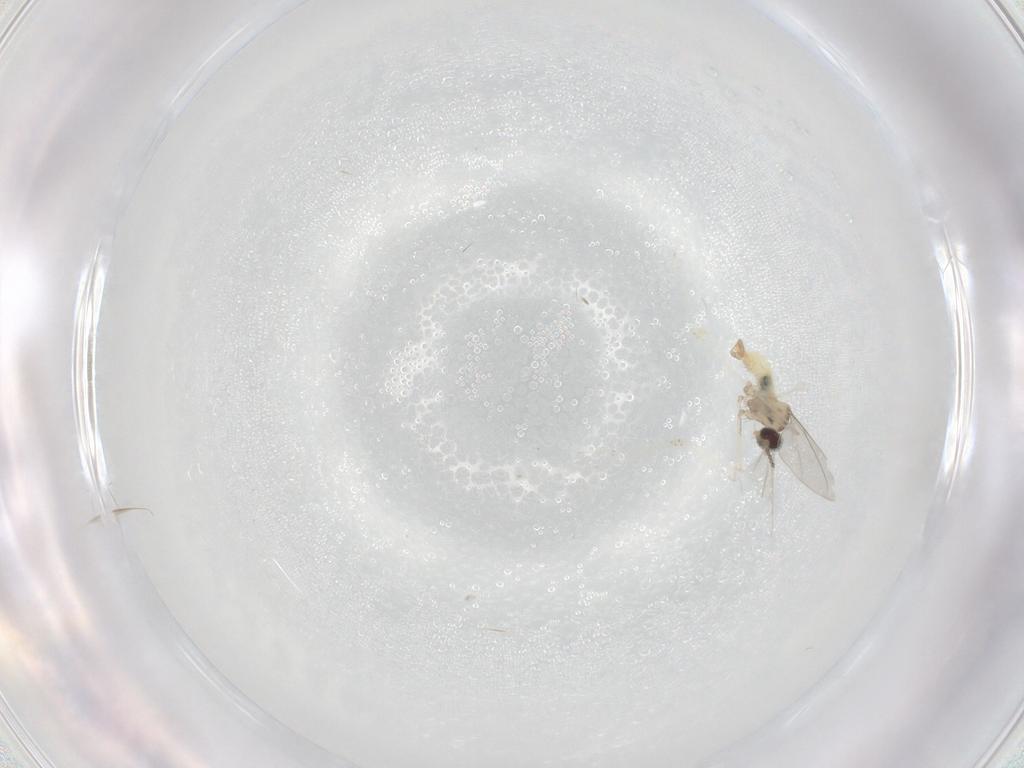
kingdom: Animalia
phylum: Arthropoda
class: Insecta
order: Diptera
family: Cecidomyiidae
